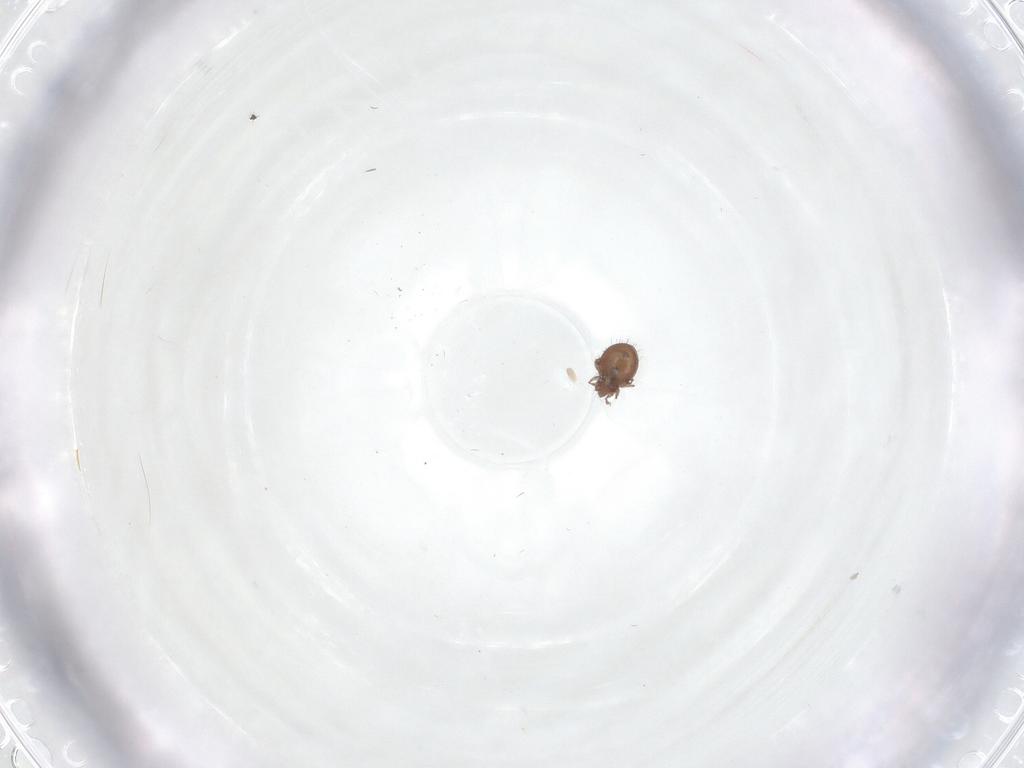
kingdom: Animalia
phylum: Arthropoda
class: Arachnida
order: Sarcoptiformes
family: Oribatulidae
